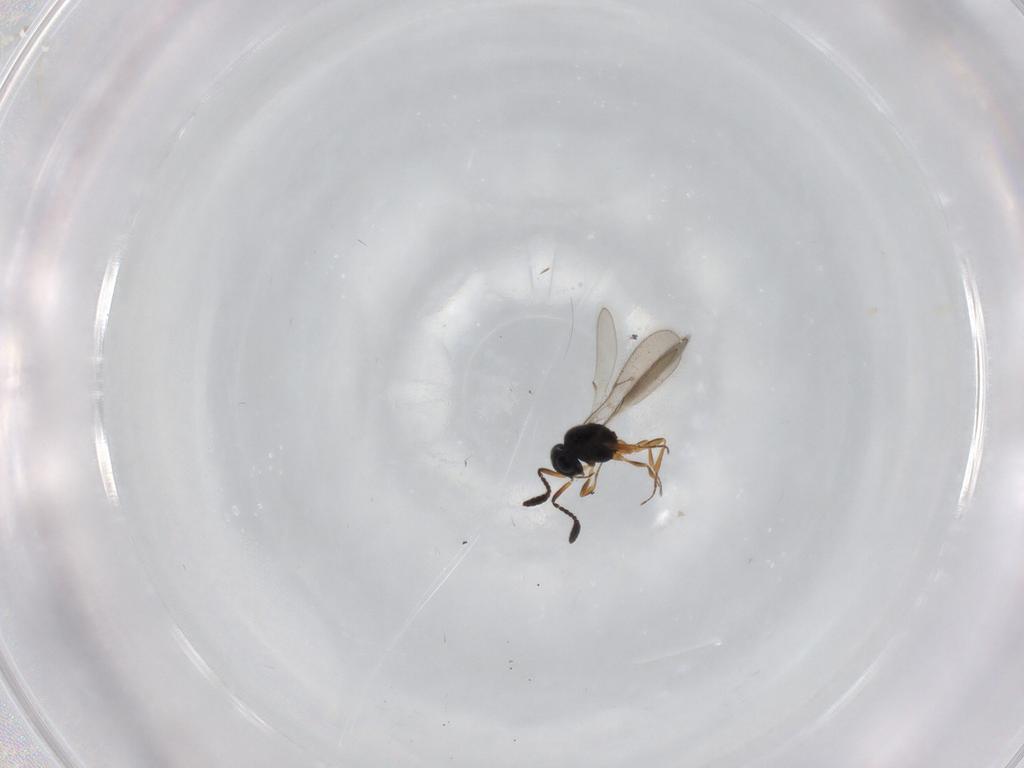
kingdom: Animalia
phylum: Arthropoda
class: Insecta
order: Hymenoptera
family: Scelionidae
